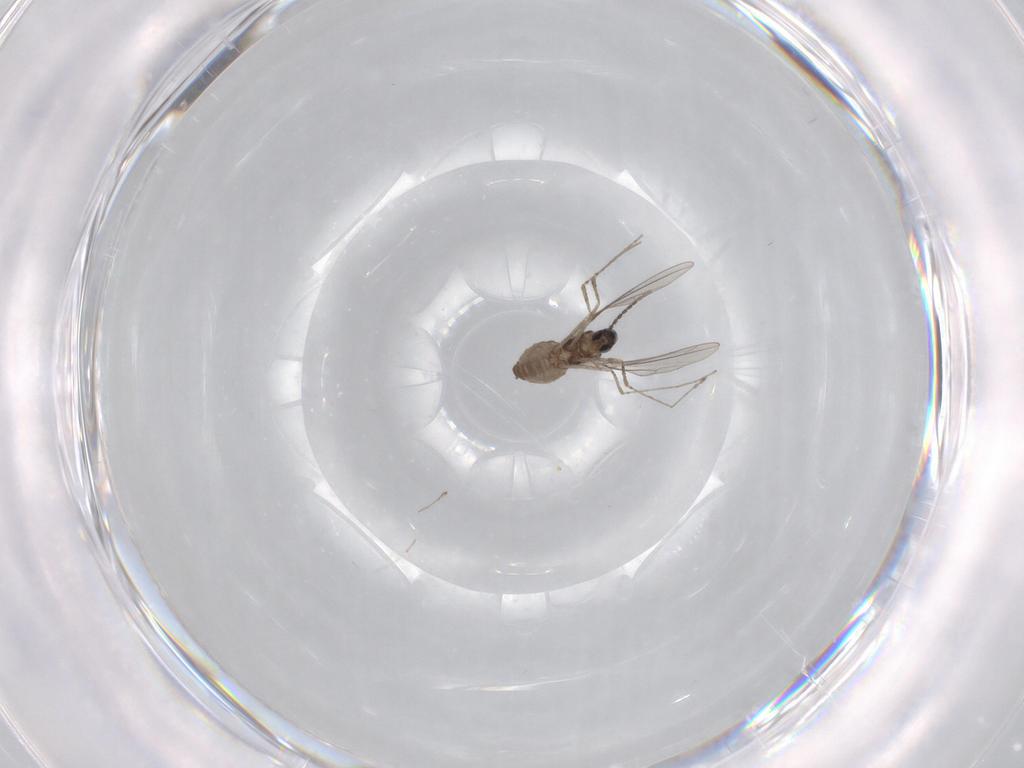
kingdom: Animalia
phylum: Arthropoda
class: Insecta
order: Diptera
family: Cecidomyiidae
